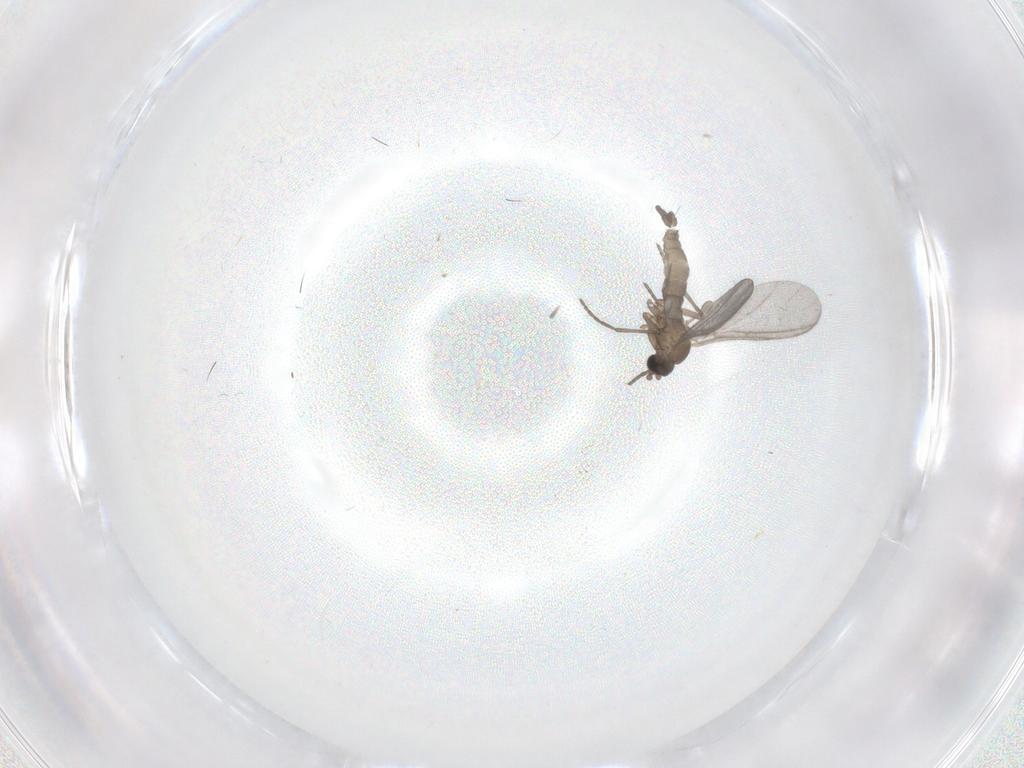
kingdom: Animalia
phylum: Arthropoda
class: Insecta
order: Diptera
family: Sciaridae
